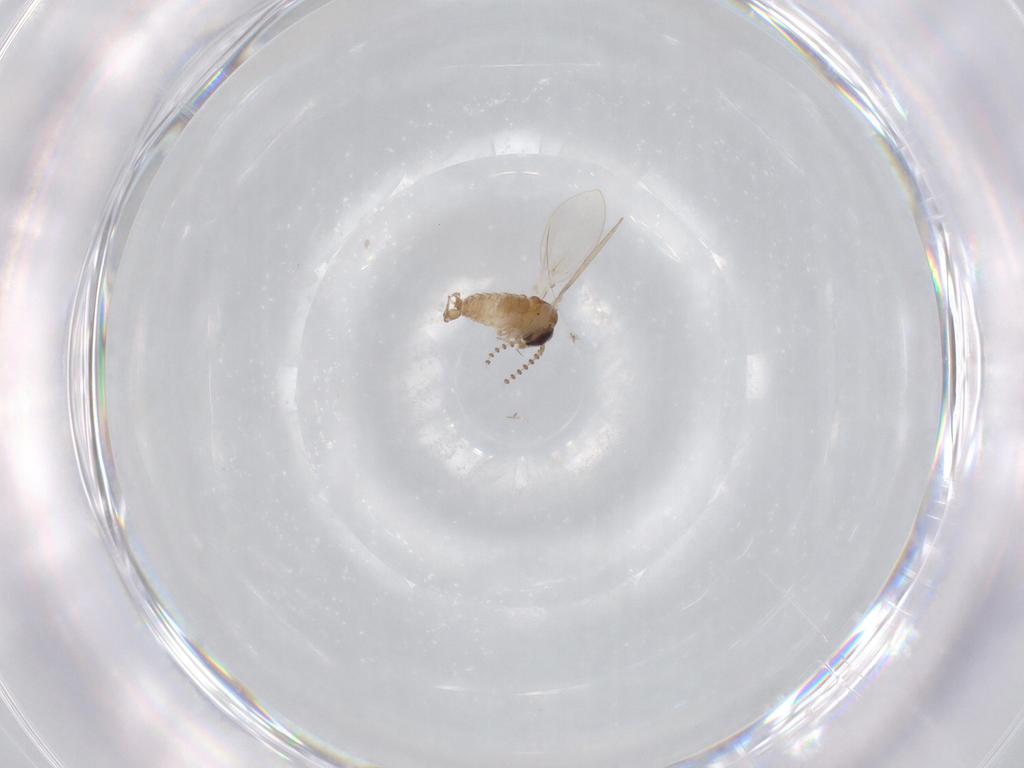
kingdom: Animalia
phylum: Arthropoda
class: Insecta
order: Diptera
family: Psychodidae
